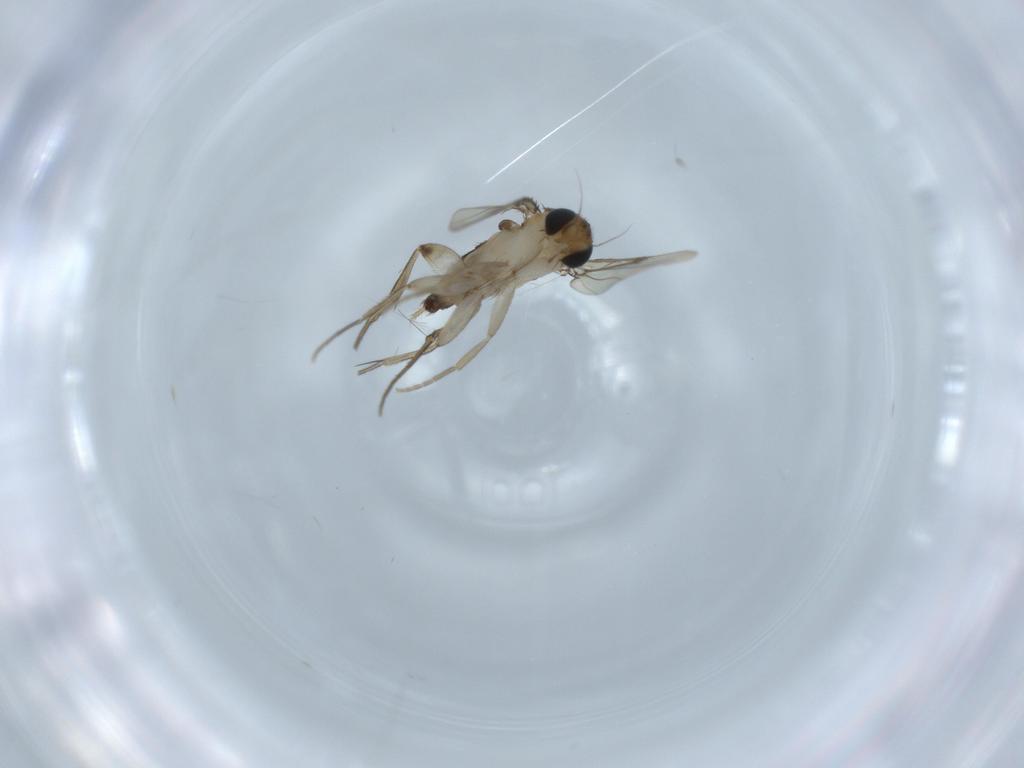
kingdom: Animalia
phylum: Arthropoda
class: Insecta
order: Diptera
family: Phoridae
